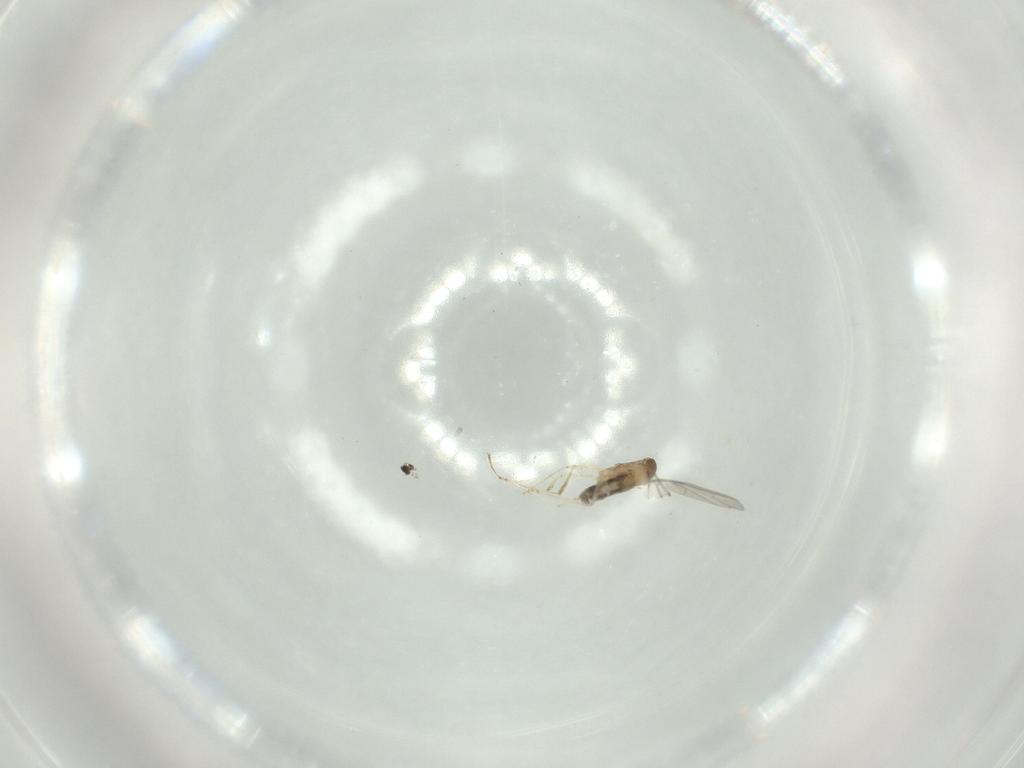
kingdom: Animalia
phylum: Arthropoda
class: Insecta
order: Diptera
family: Cecidomyiidae
